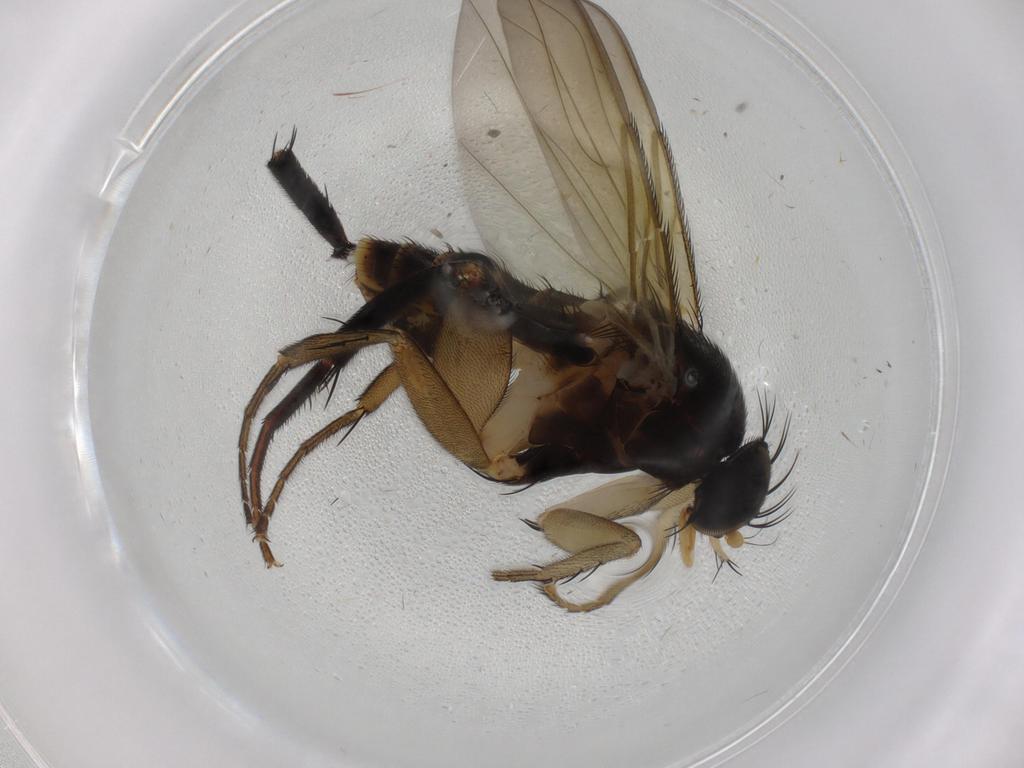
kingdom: Animalia
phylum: Arthropoda
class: Insecta
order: Diptera
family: Phoridae
